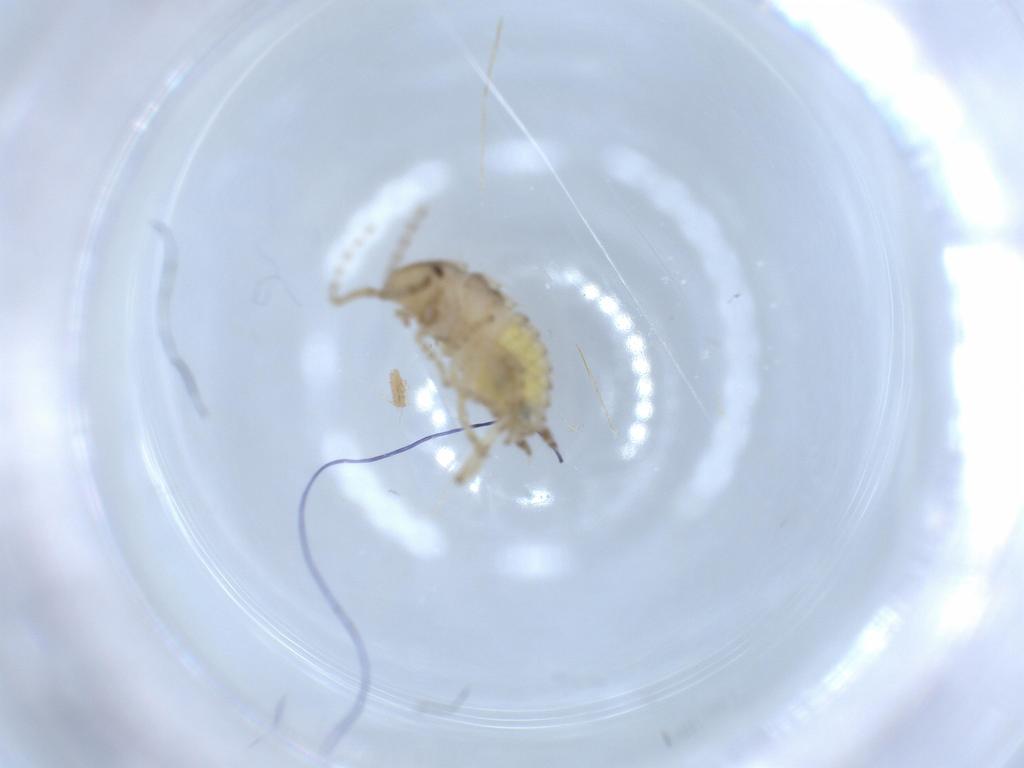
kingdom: Animalia
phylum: Arthropoda
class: Insecta
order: Blattodea
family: Ectobiidae
